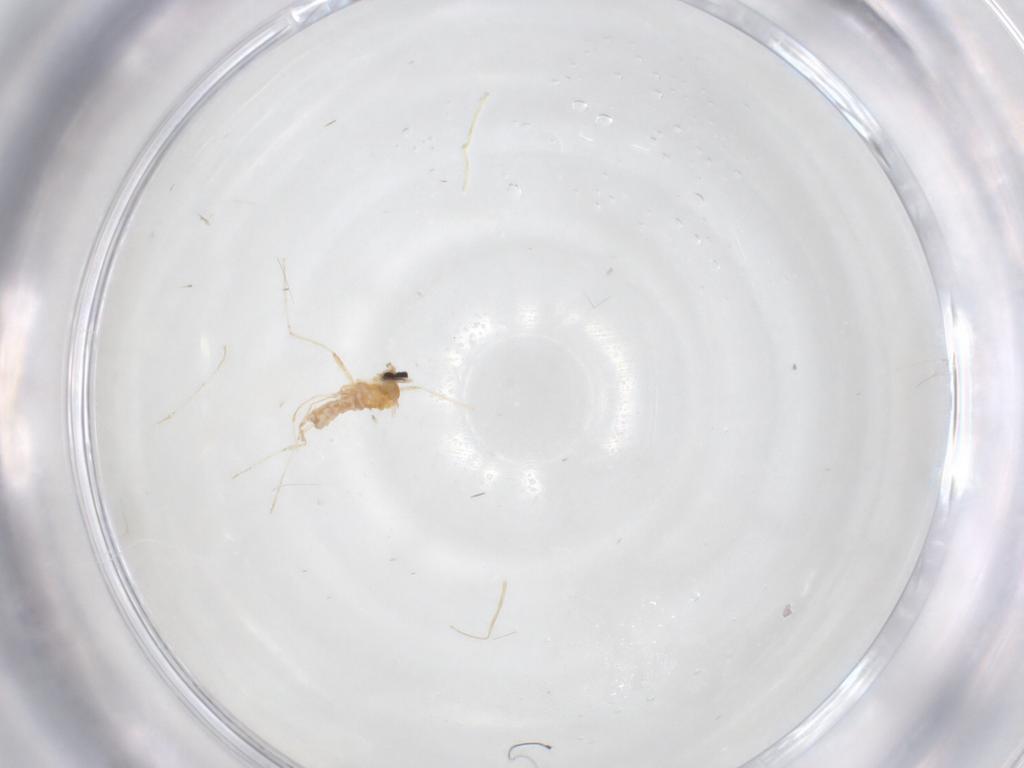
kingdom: Animalia
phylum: Arthropoda
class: Insecta
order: Diptera
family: Cecidomyiidae
